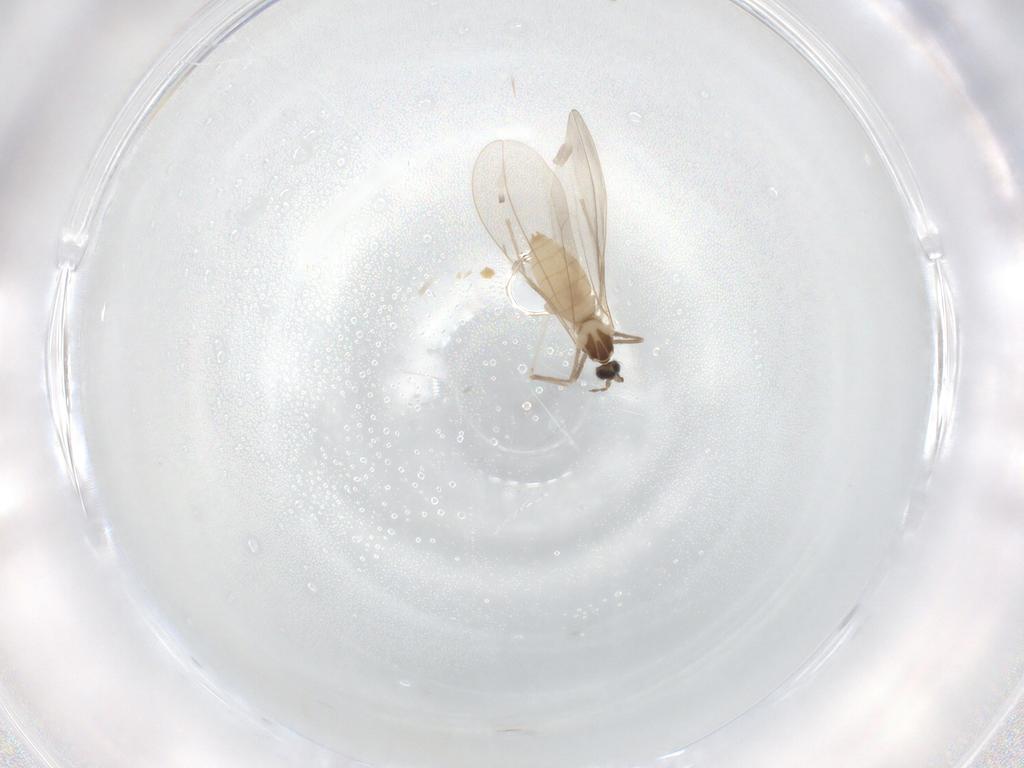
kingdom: Animalia
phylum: Arthropoda
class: Insecta
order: Diptera
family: Cecidomyiidae
